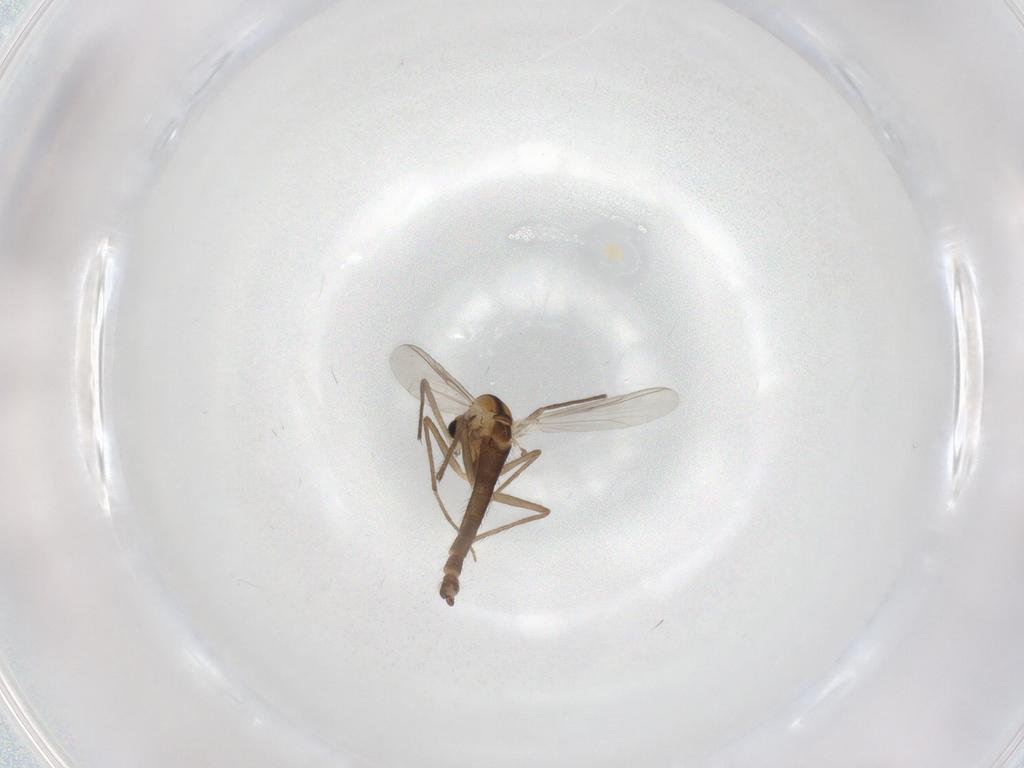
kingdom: Animalia
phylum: Arthropoda
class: Insecta
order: Diptera
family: Chironomidae
